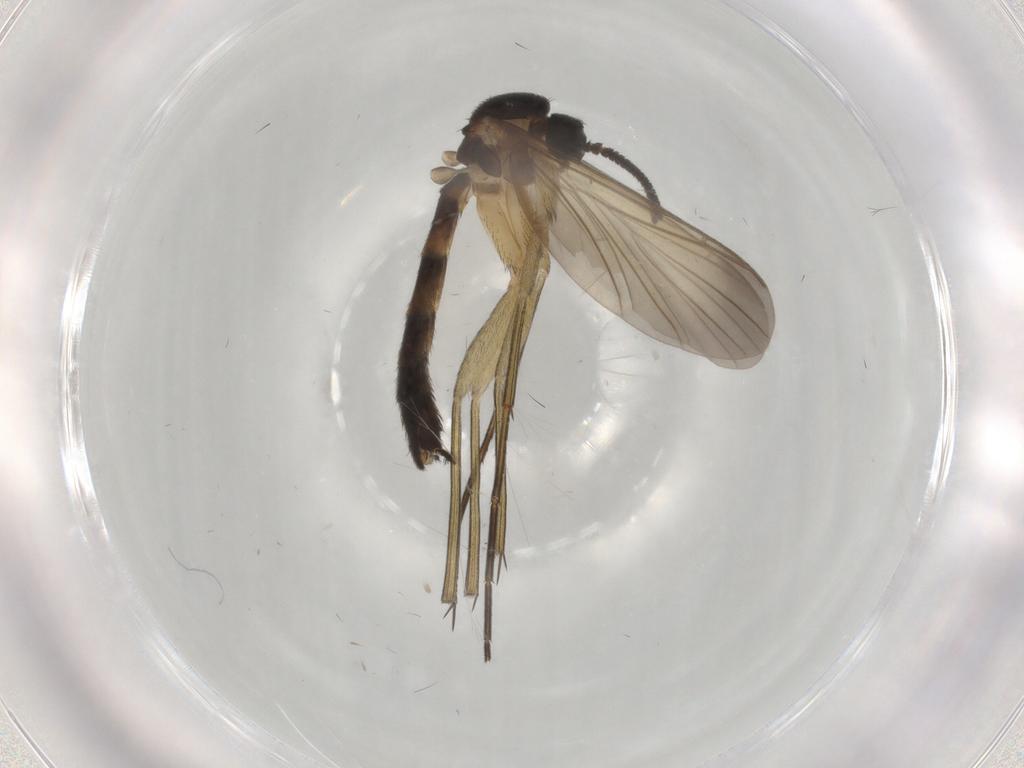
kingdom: Animalia
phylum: Arthropoda
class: Insecta
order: Diptera
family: Keroplatidae
